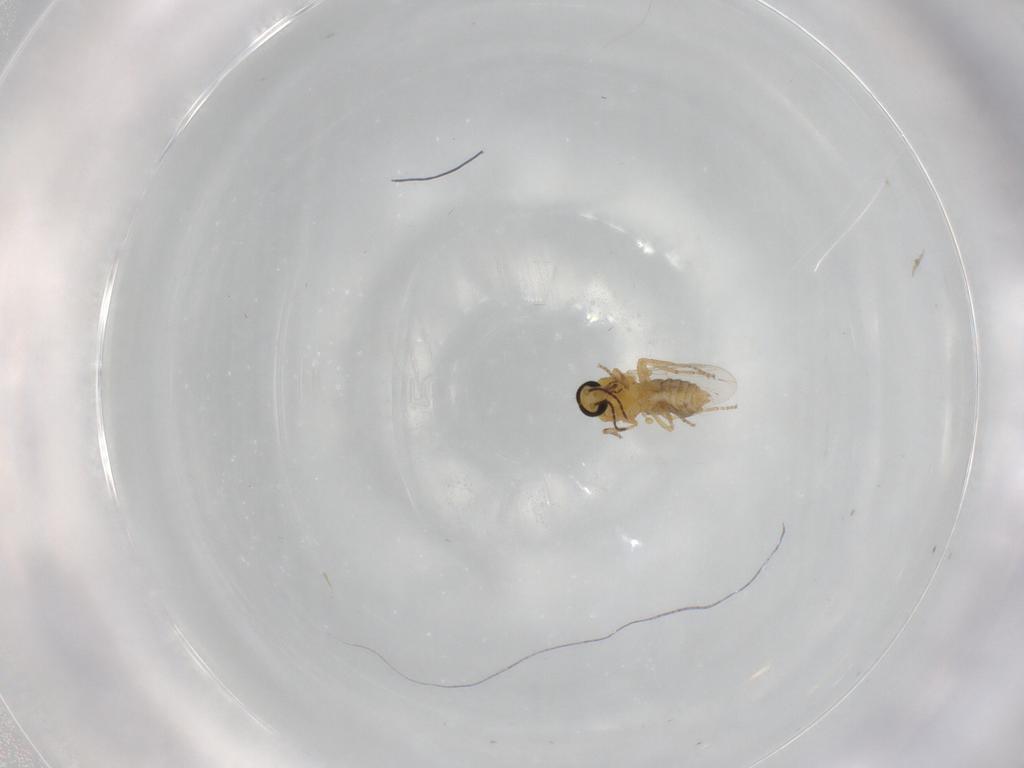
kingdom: Animalia
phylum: Arthropoda
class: Insecta
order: Diptera
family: Ceratopogonidae
